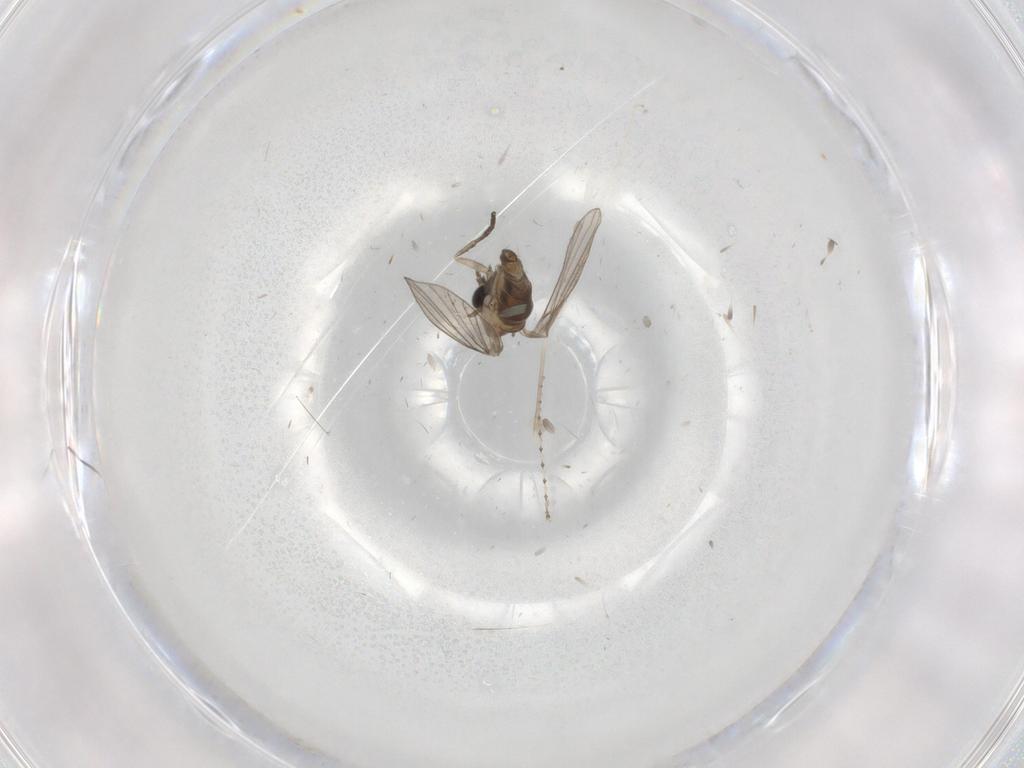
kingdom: Animalia
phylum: Arthropoda
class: Insecta
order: Diptera
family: Psychodidae
